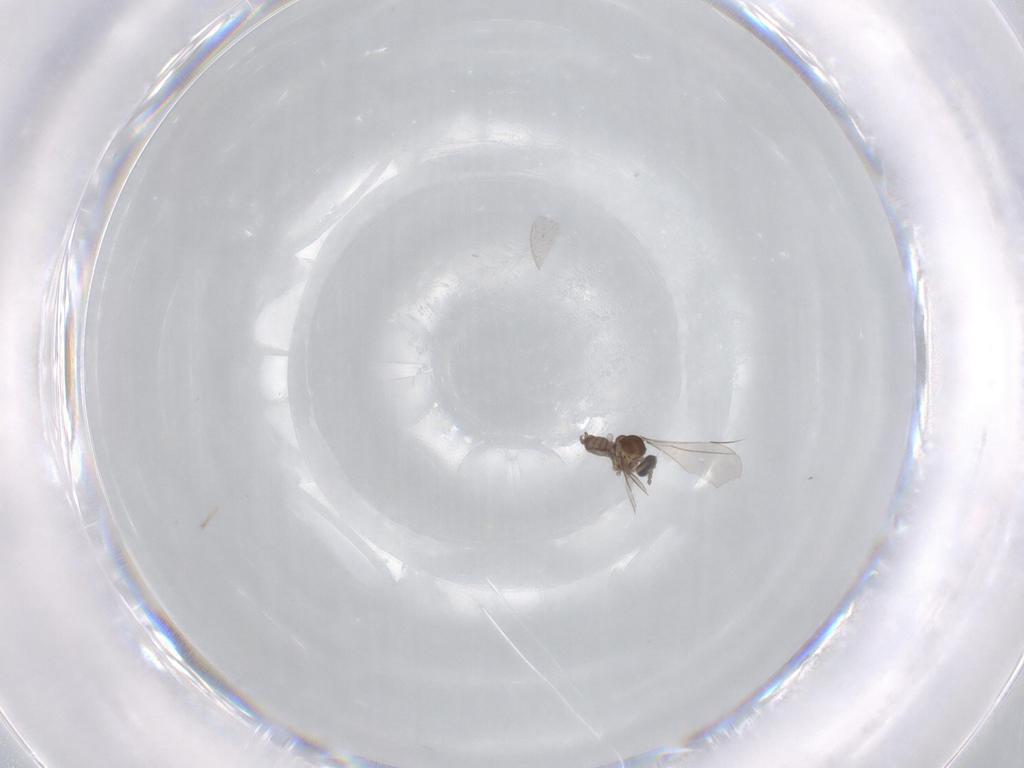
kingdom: Animalia
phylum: Arthropoda
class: Insecta
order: Diptera
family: Cecidomyiidae
